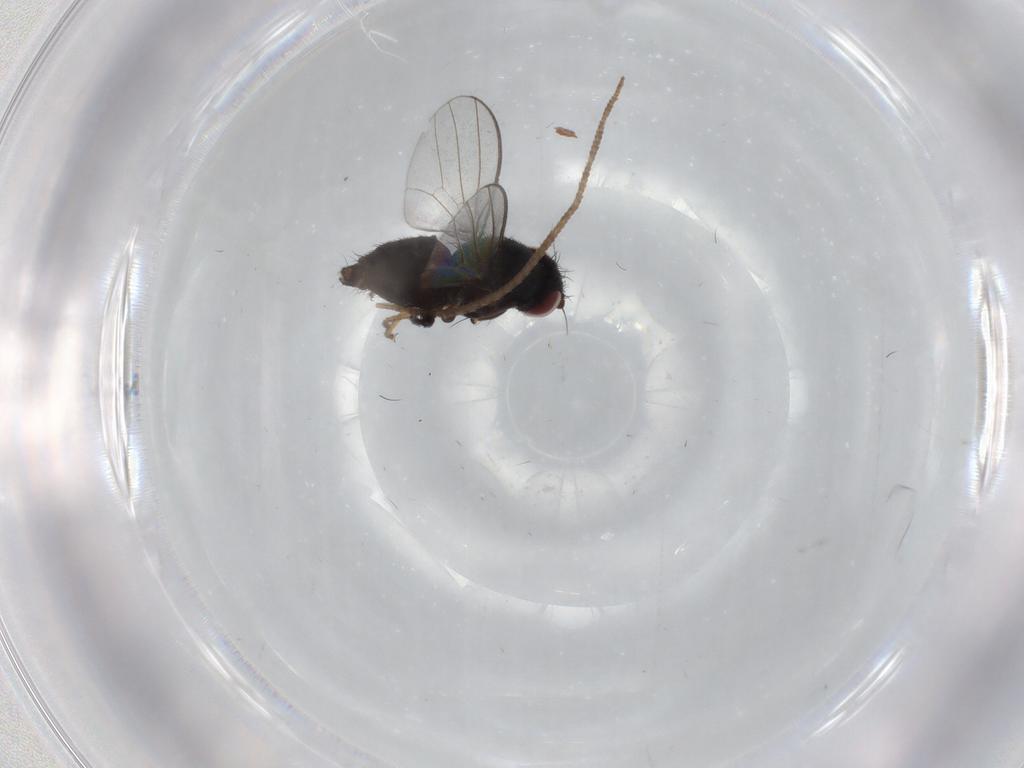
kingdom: Animalia
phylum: Arthropoda
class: Insecta
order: Diptera
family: Milichiidae
